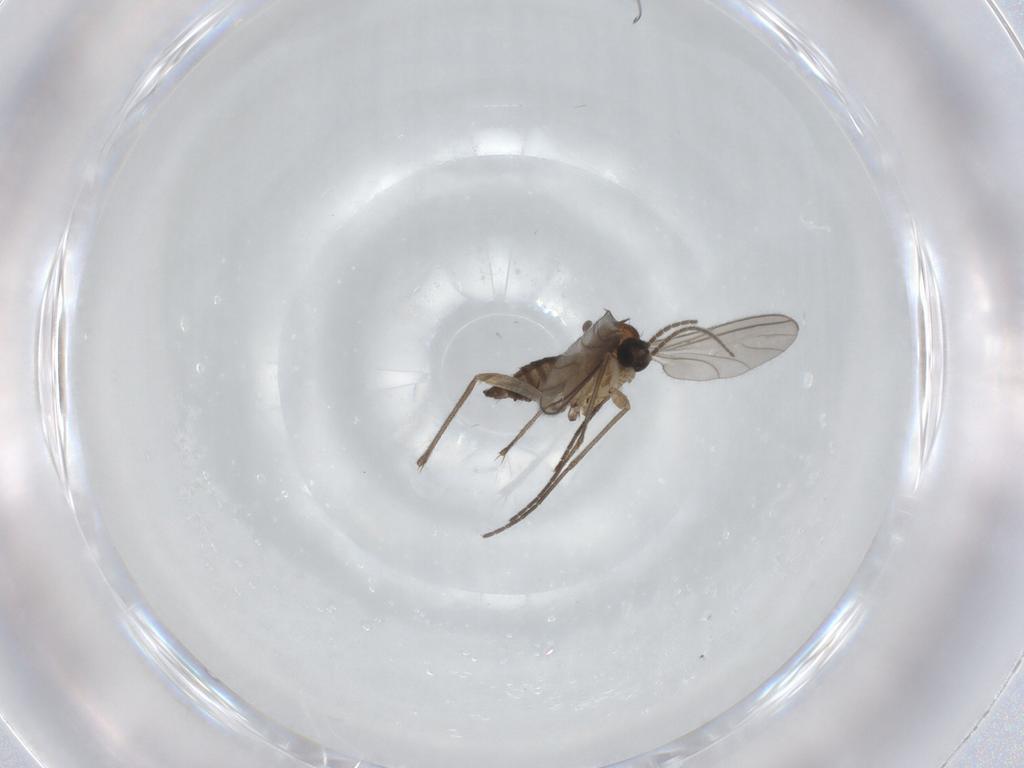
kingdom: Animalia
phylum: Arthropoda
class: Insecta
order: Diptera
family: Sciaridae
